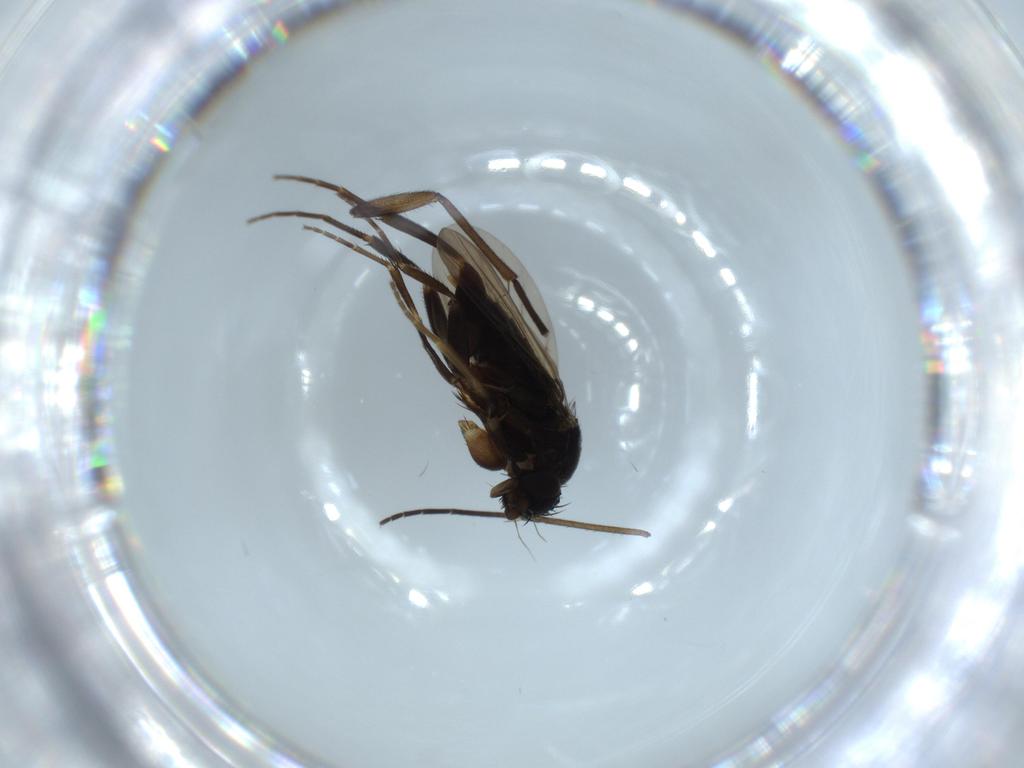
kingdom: Animalia
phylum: Arthropoda
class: Insecta
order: Diptera
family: Phoridae
